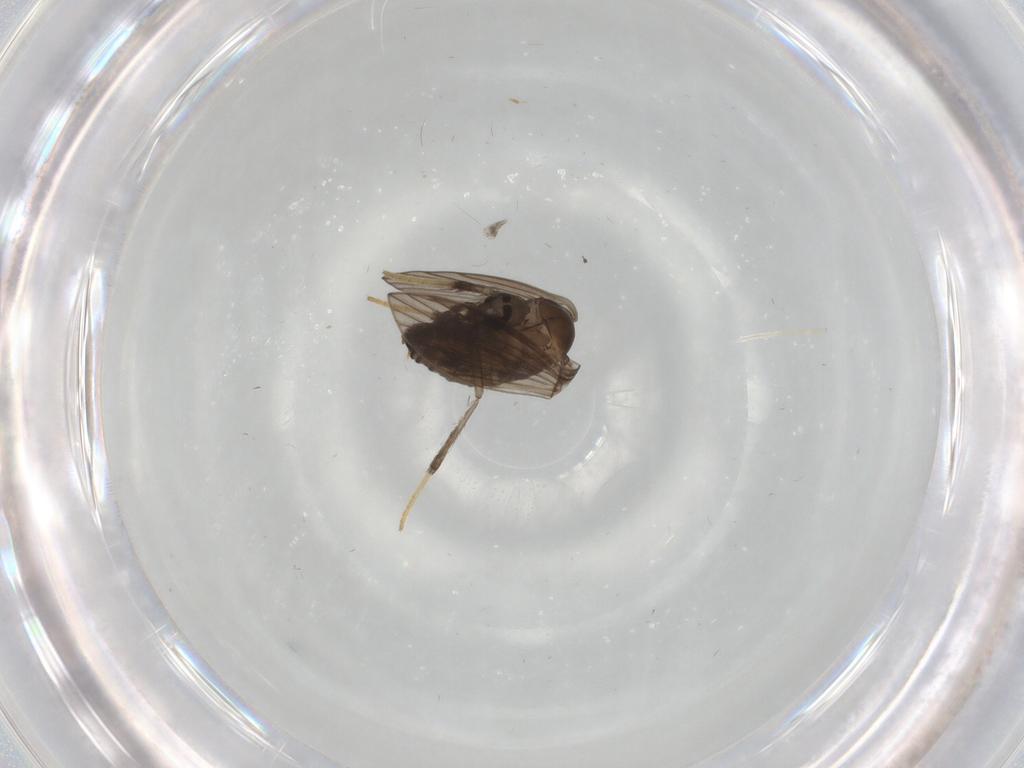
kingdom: Animalia
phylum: Arthropoda
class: Insecta
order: Diptera
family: Psychodidae
